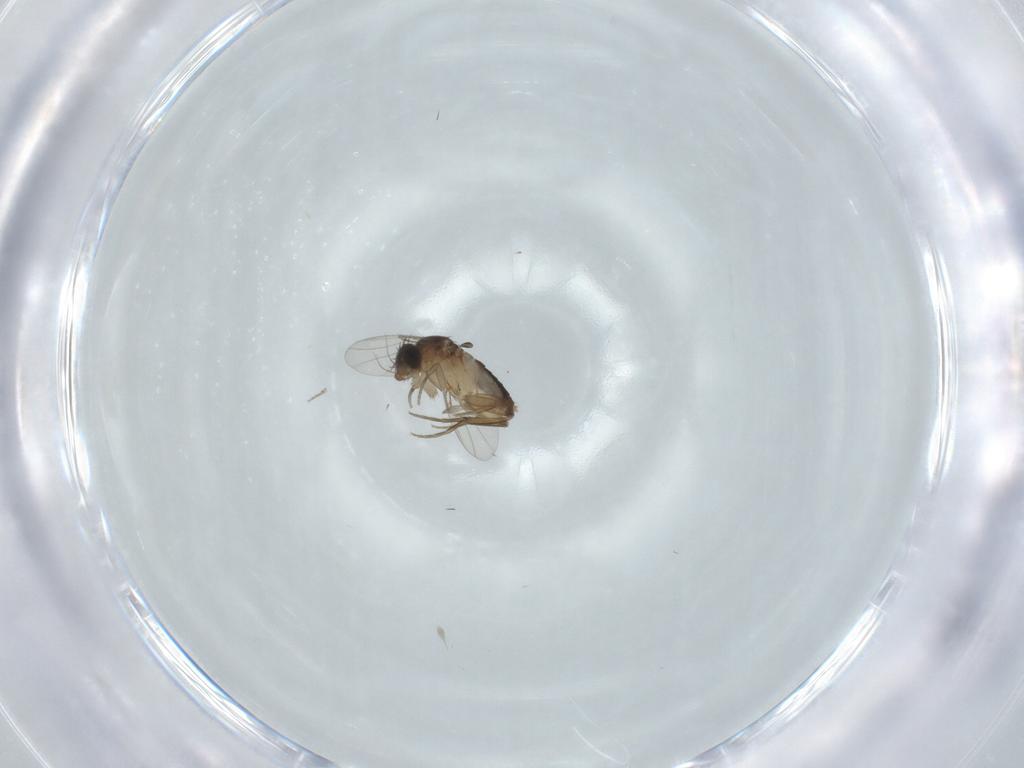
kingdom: Animalia
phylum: Arthropoda
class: Insecta
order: Diptera
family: Phoridae
